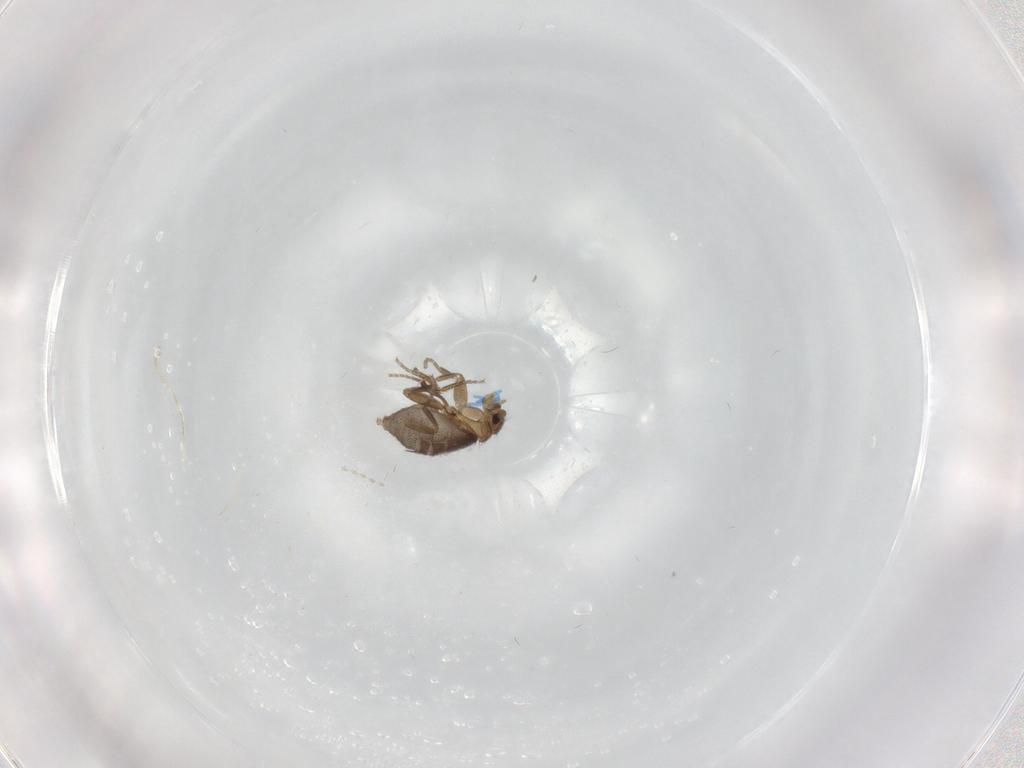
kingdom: Animalia
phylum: Arthropoda
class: Insecta
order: Diptera
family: Cecidomyiidae
